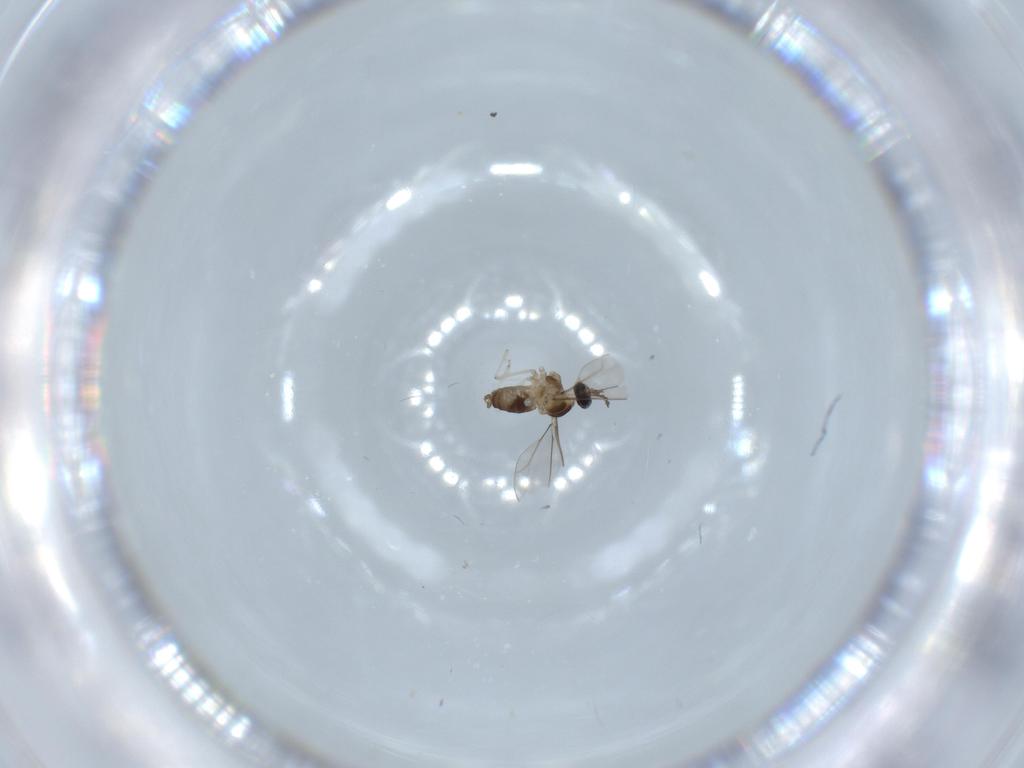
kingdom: Animalia
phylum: Arthropoda
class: Insecta
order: Diptera
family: Cecidomyiidae
